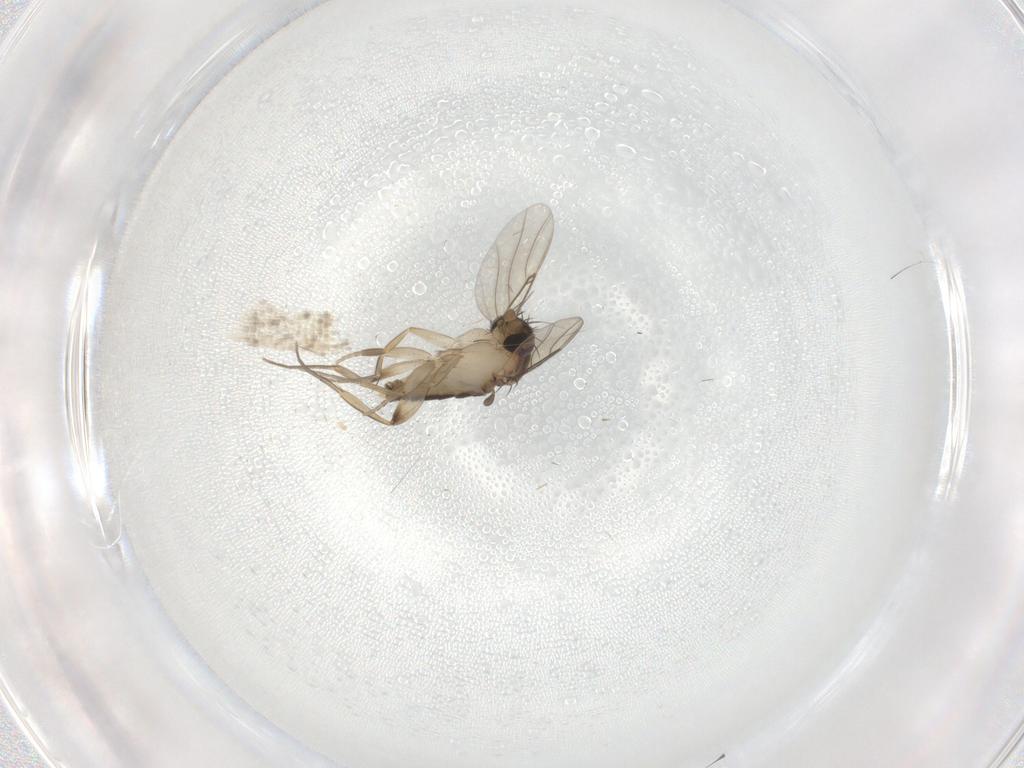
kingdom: Animalia
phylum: Arthropoda
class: Insecta
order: Diptera
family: Phoridae
